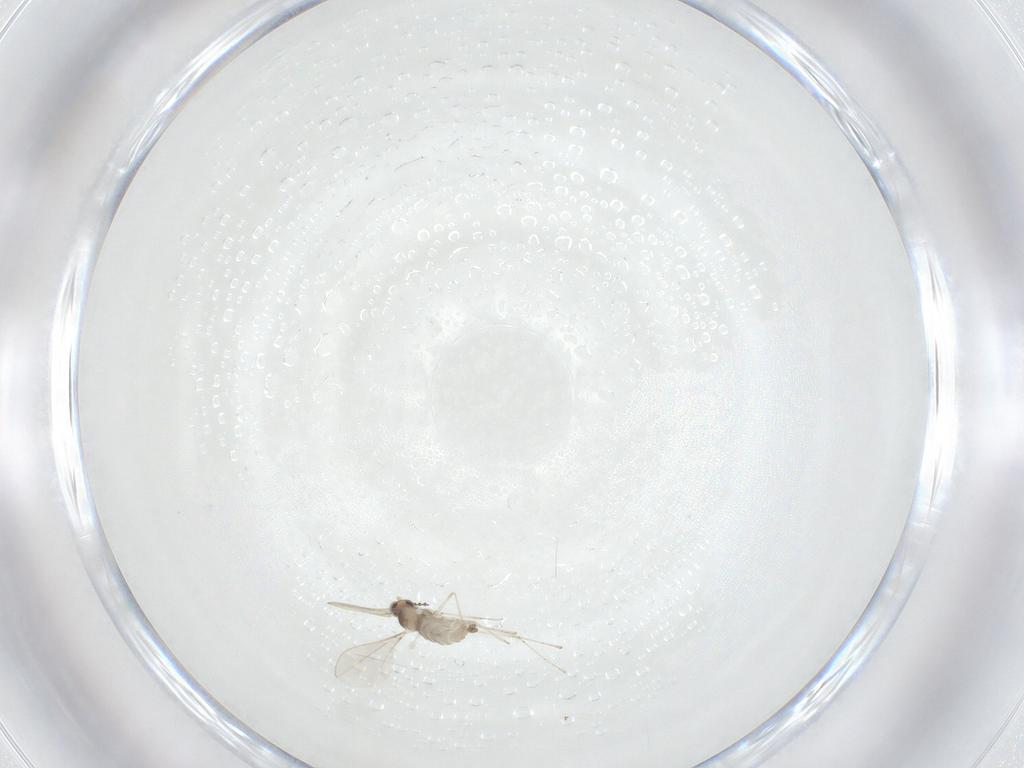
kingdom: Animalia
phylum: Arthropoda
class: Insecta
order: Diptera
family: Cecidomyiidae
